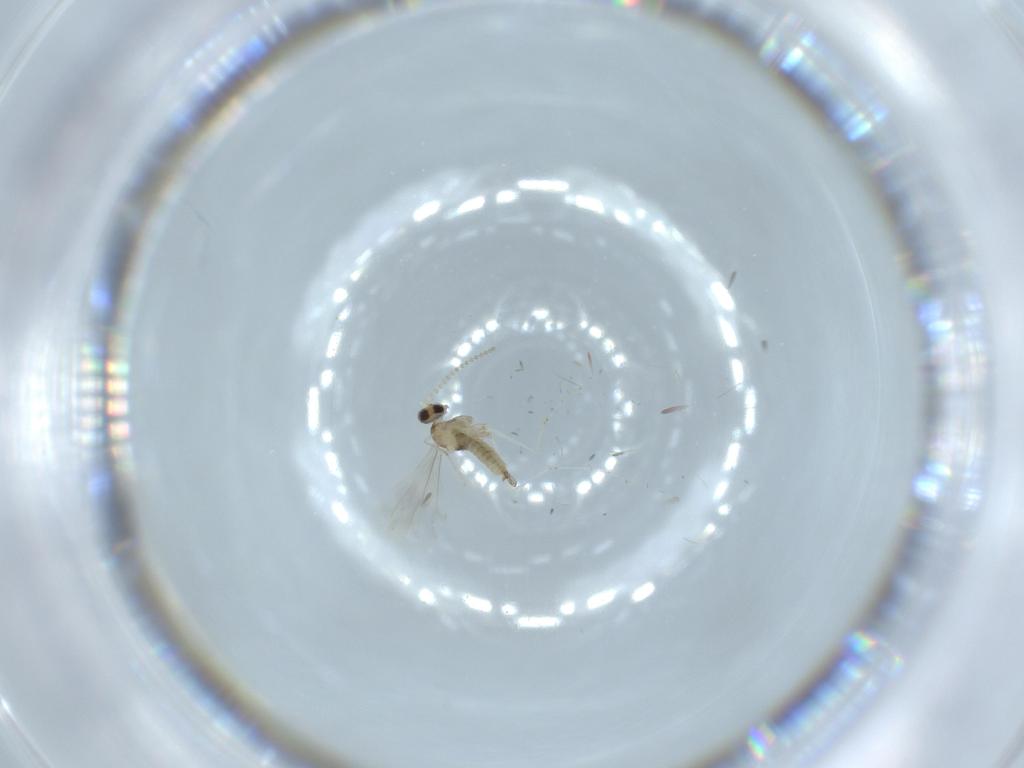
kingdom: Animalia
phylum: Arthropoda
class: Insecta
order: Diptera
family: Cecidomyiidae
